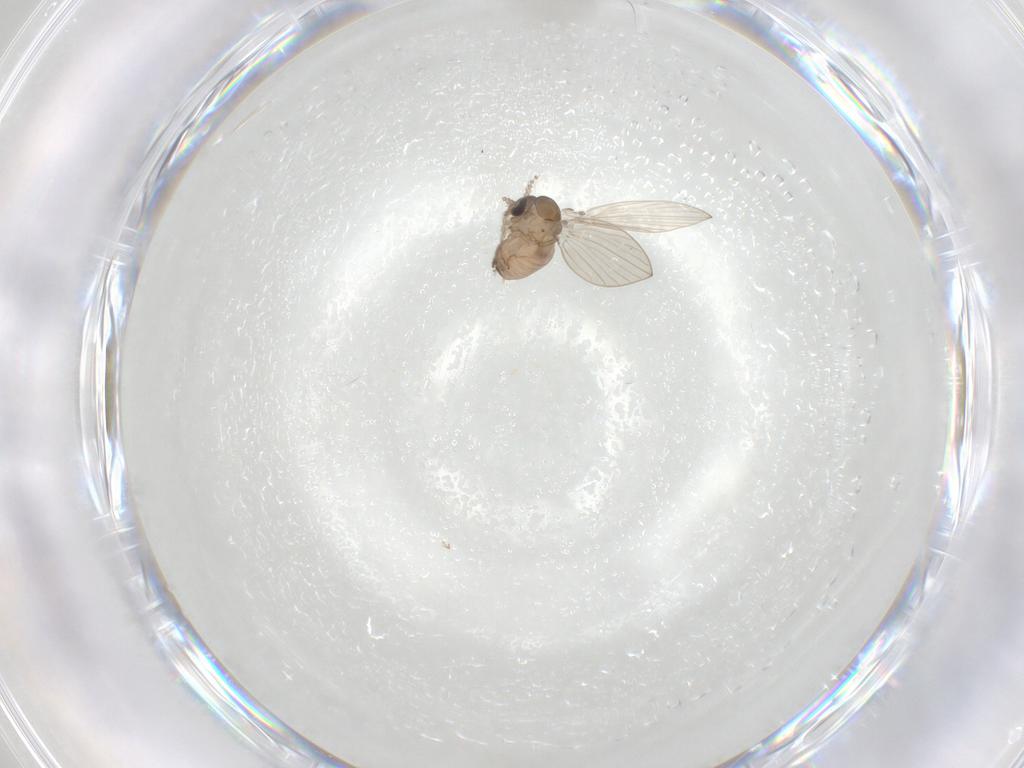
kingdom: Animalia
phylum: Arthropoda
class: Insecta
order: Diptera
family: Psychodidae
